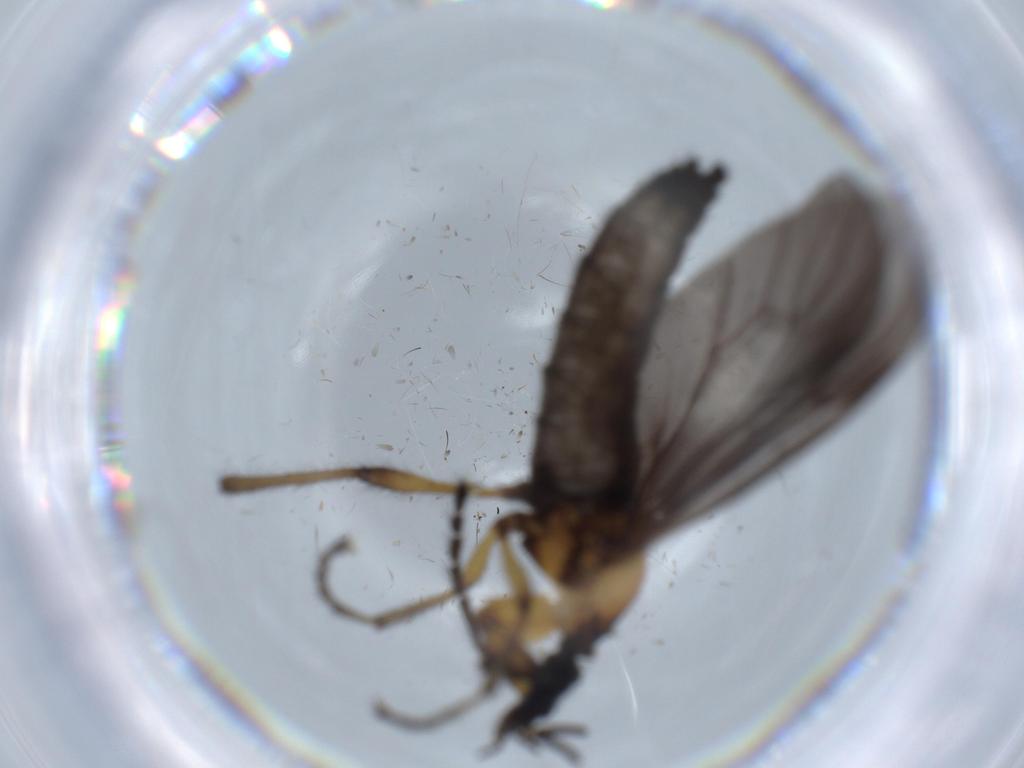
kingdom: Animalia
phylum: Arthropoda
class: Insecta
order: Diptera
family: Bibionidae
